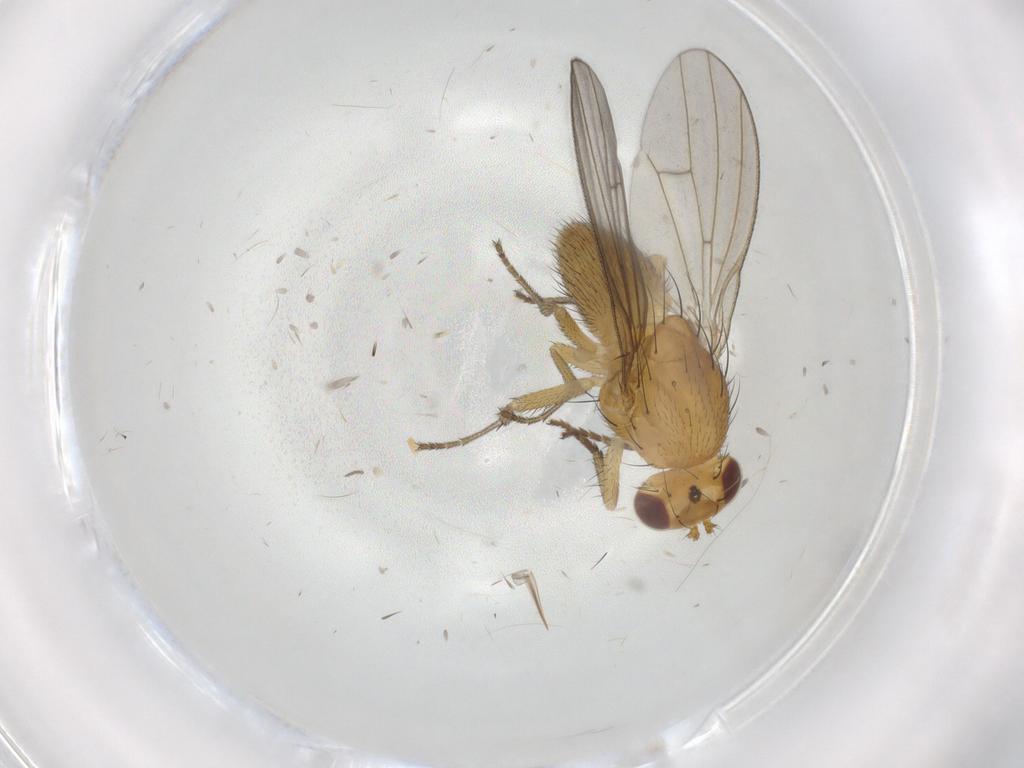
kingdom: Animalia
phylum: Arthropoda
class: Insecta
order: Diptera
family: Lauxaniidae
